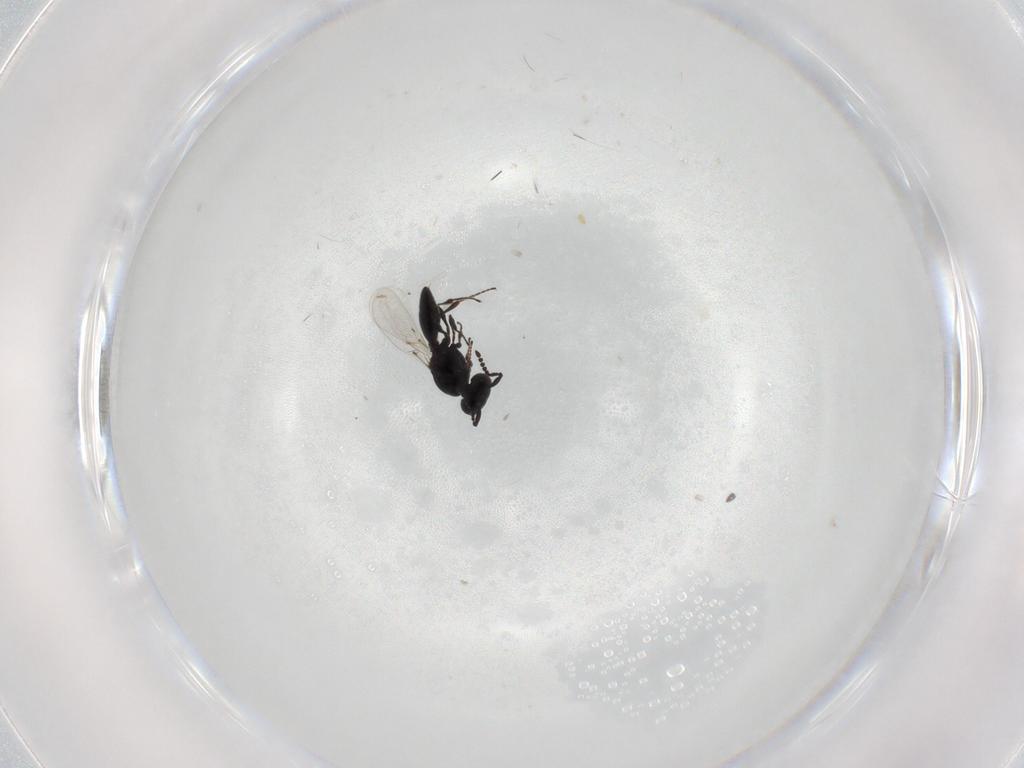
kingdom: Animalia
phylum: Arthropoda
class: Insecta
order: Hymenoptera
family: Platygastridae
